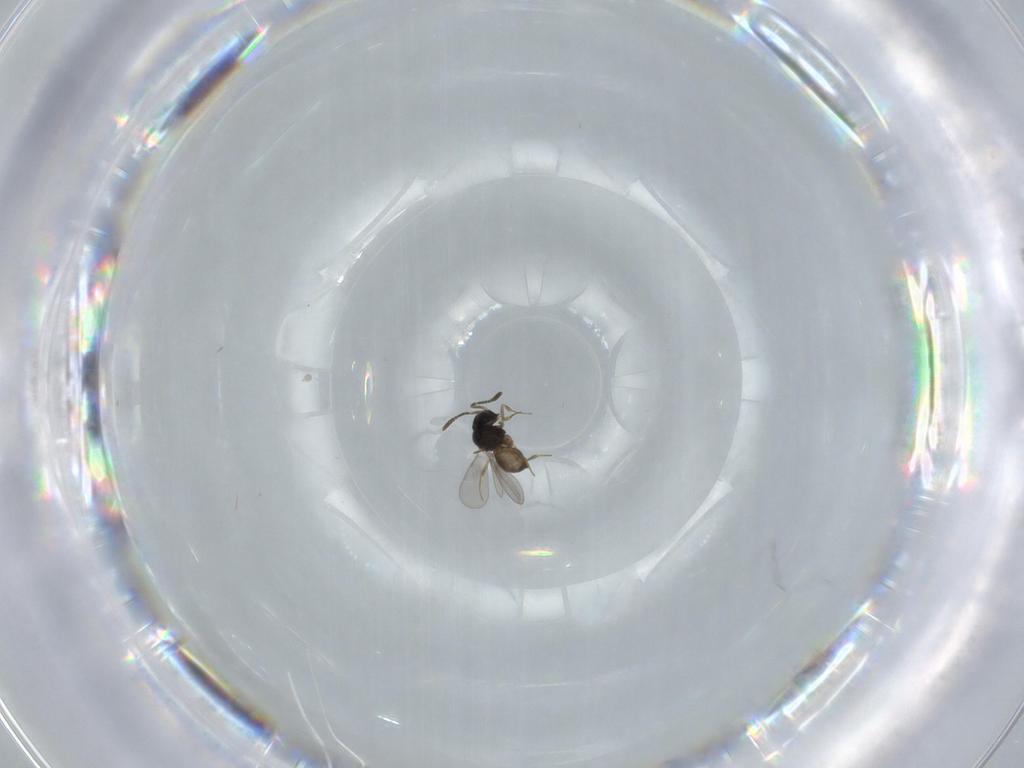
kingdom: Animalia
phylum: Arthropoda
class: Insecta
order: Hymenoptera
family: Scelionidae
